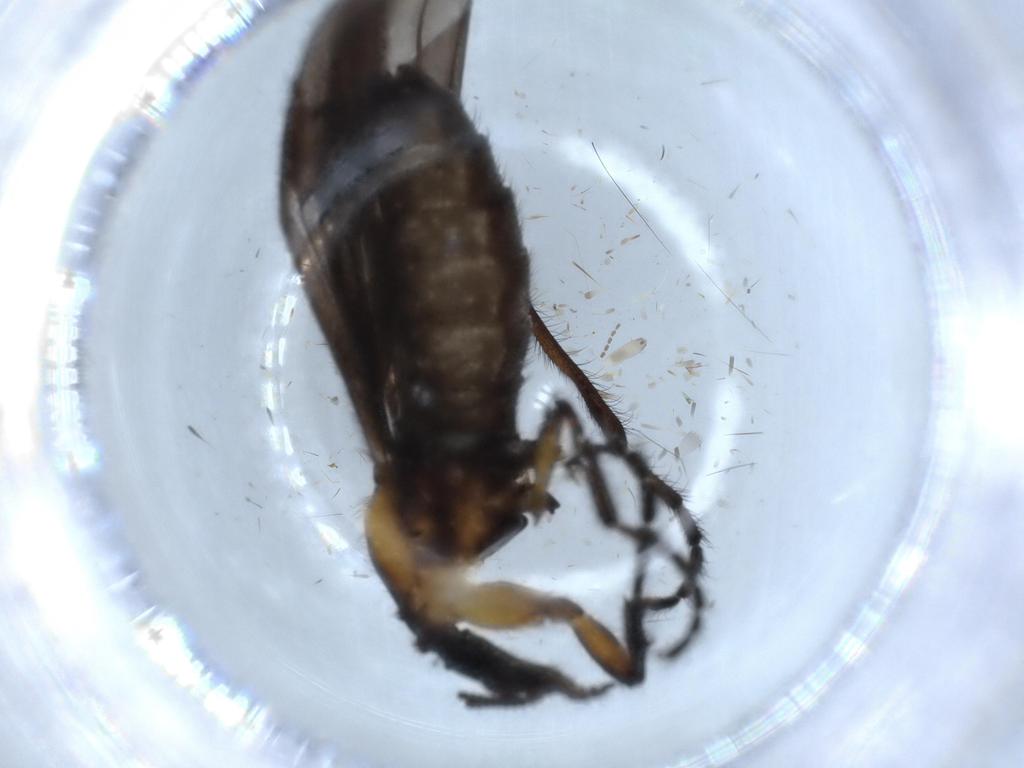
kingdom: Animalia
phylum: Arthropoda
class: Insecta
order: Diptera
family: Bibionidae
